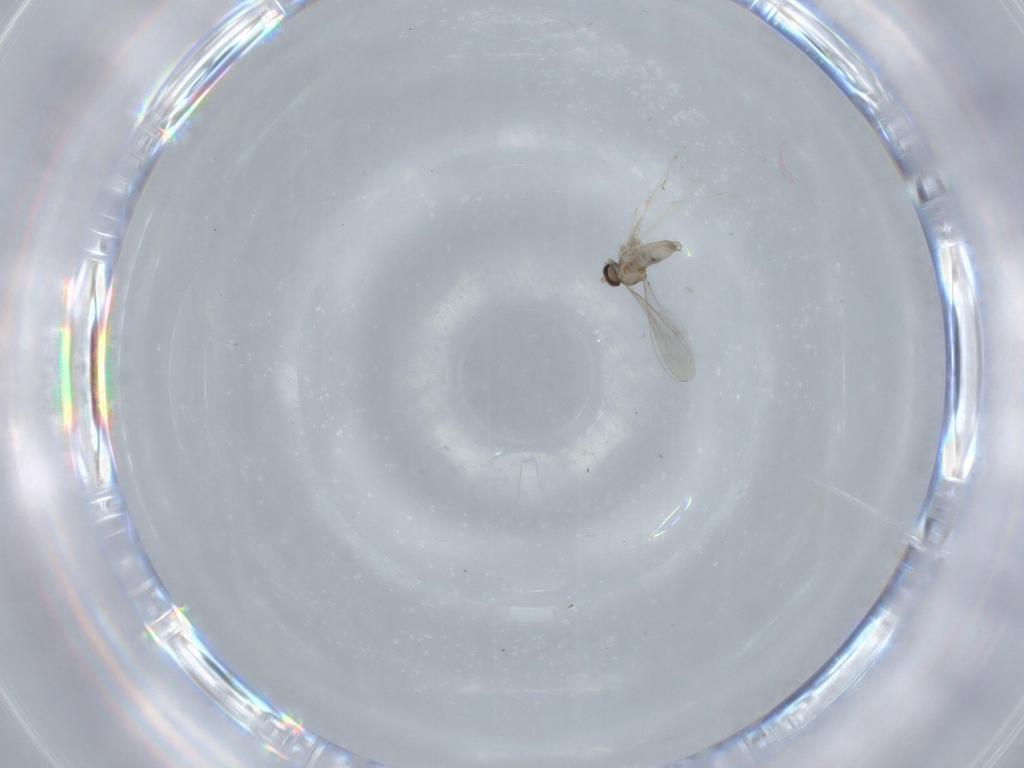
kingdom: Animalia
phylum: Arthropoda
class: Insecta
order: Diptera
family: Cecidomyiidae
